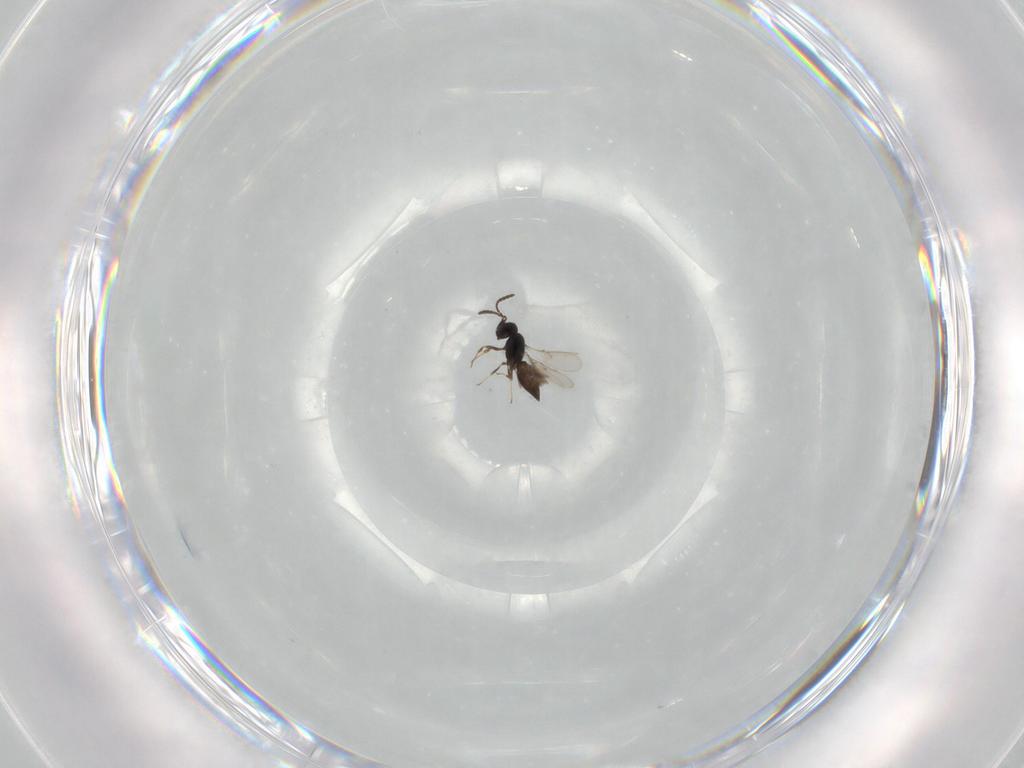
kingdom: Animalia
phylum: Arthropoda
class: Insecta
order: Hymenoptera
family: Scelionidae
